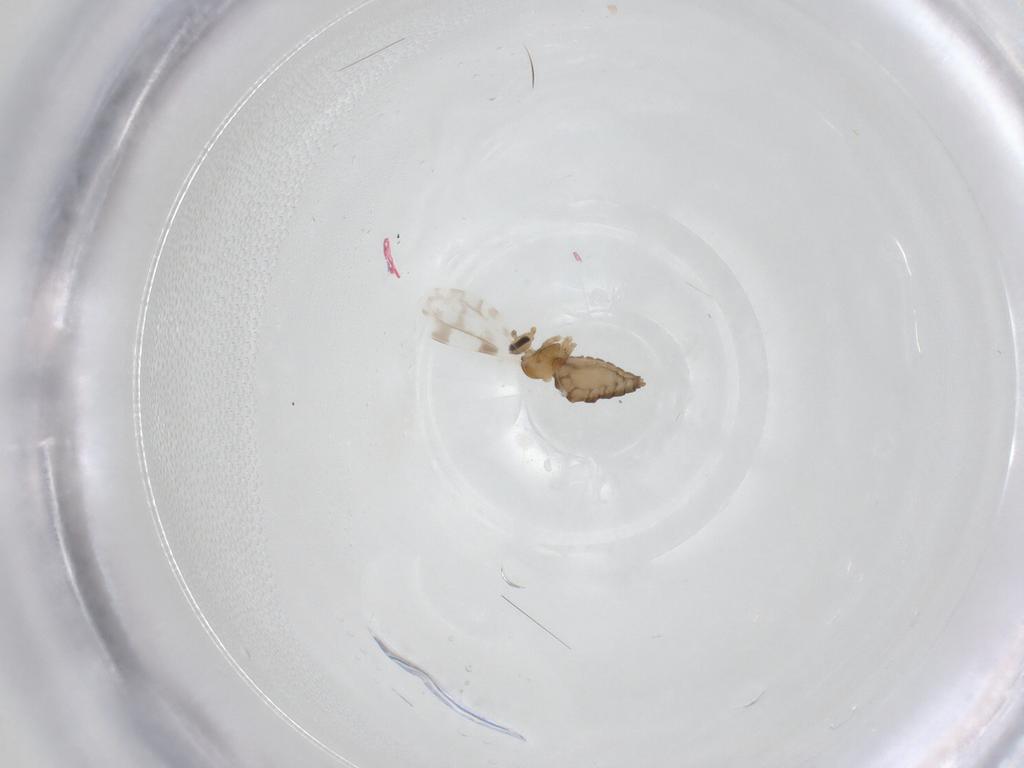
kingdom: Animalia
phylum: Arthropoda
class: Insecta
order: Diptera
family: Cecidomyiidae
